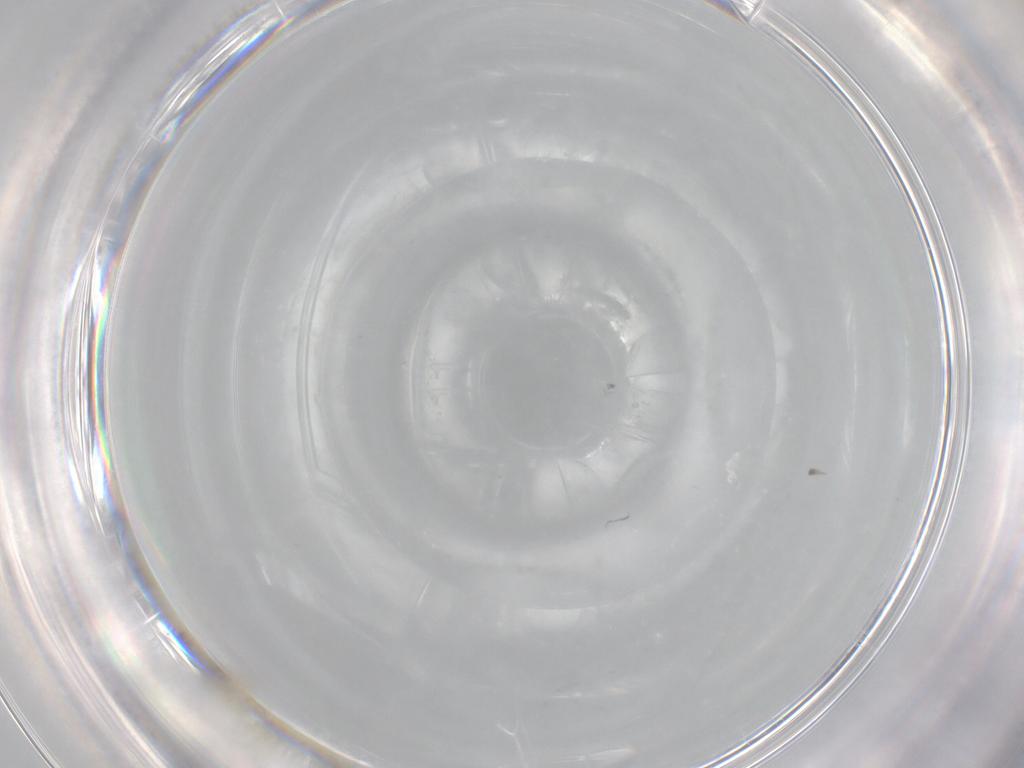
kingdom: Animalia
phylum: Arthropoda
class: Insecta
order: Diptera
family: Cecidomyiidae
